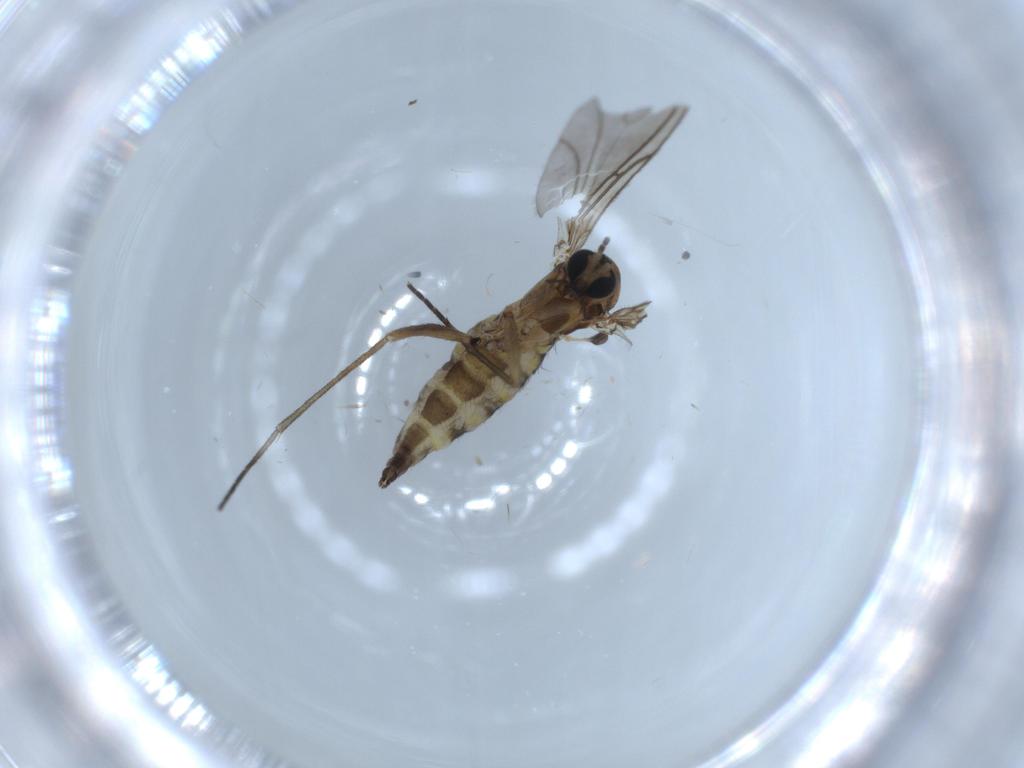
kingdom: Animalia
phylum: Arthropoda
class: Insecta
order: Diptera
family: Sciaridae
